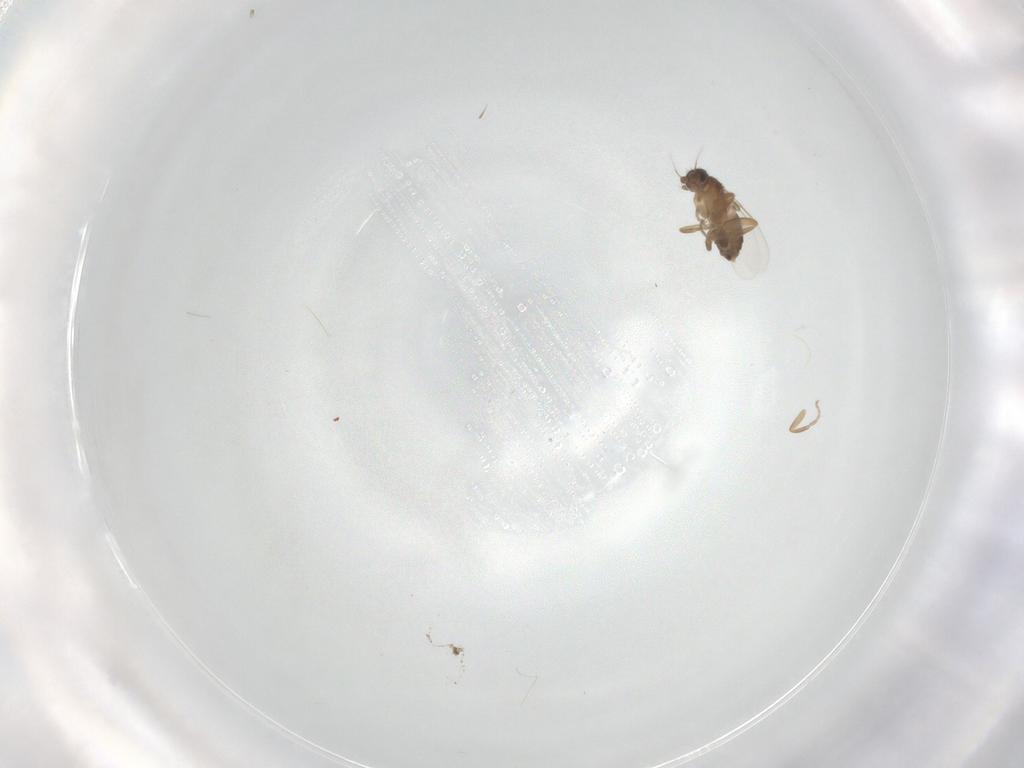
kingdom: Animalia
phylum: Arthropoda
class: Insecta
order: Diptera
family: Phoridae
